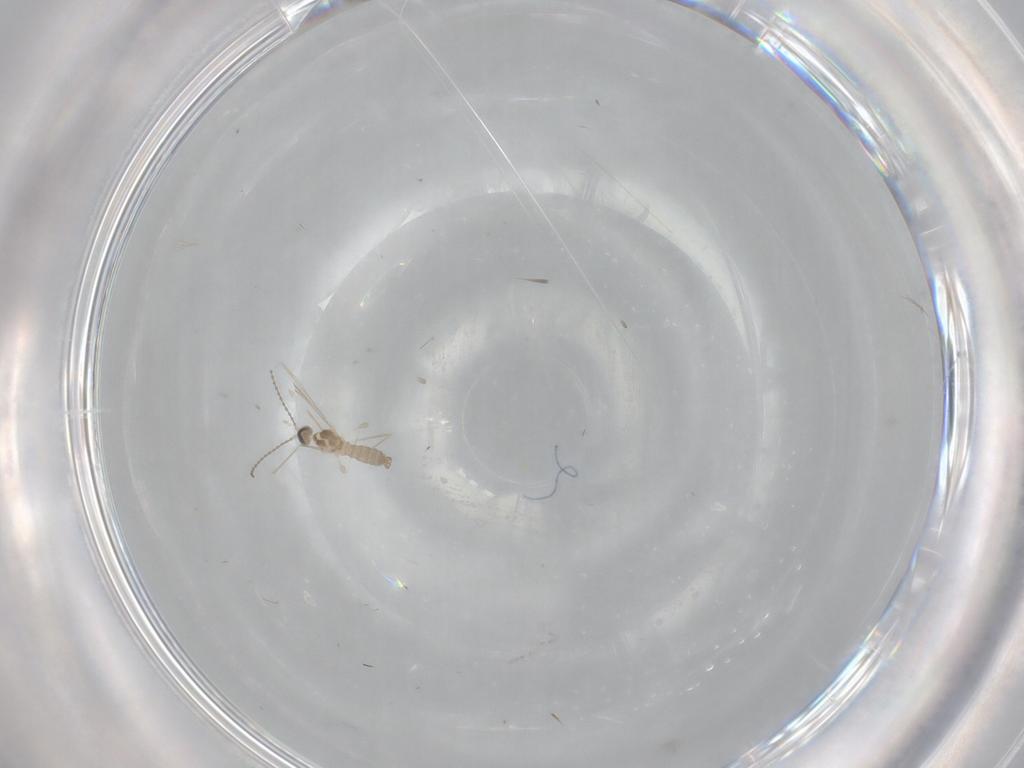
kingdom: Animalia
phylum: Arthropoda
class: Insecta
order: Diptera
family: Cecidomyiidae
